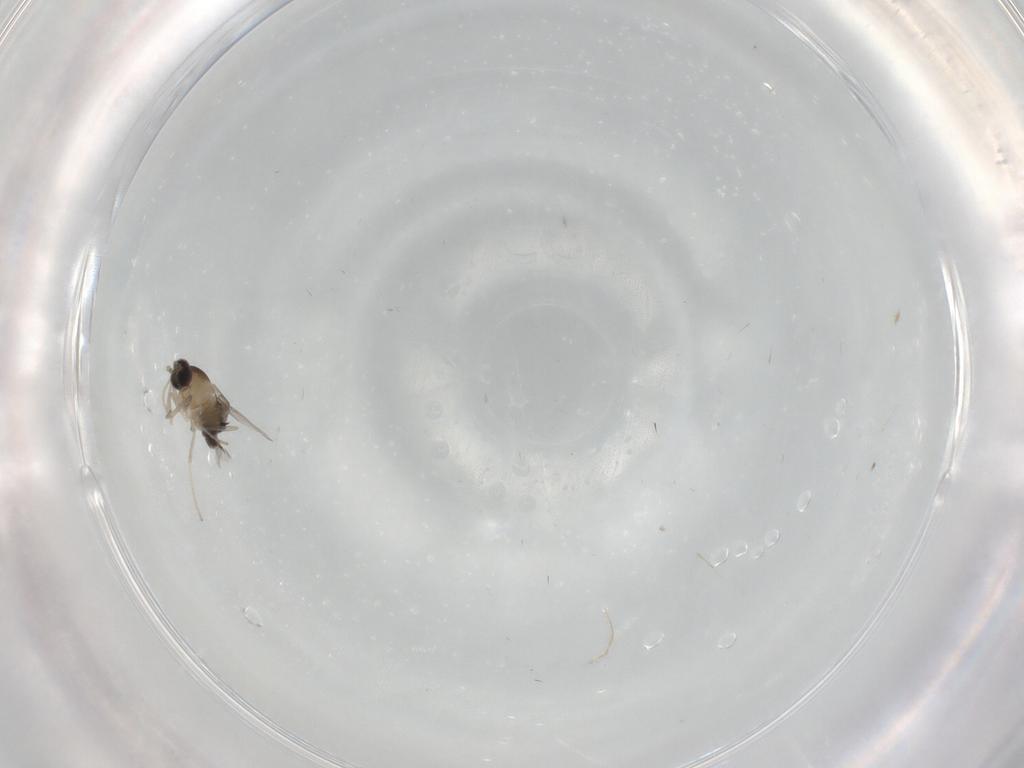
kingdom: Animalia
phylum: Arthropoda
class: Insecta
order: Diptera
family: Cecidomyiidae
